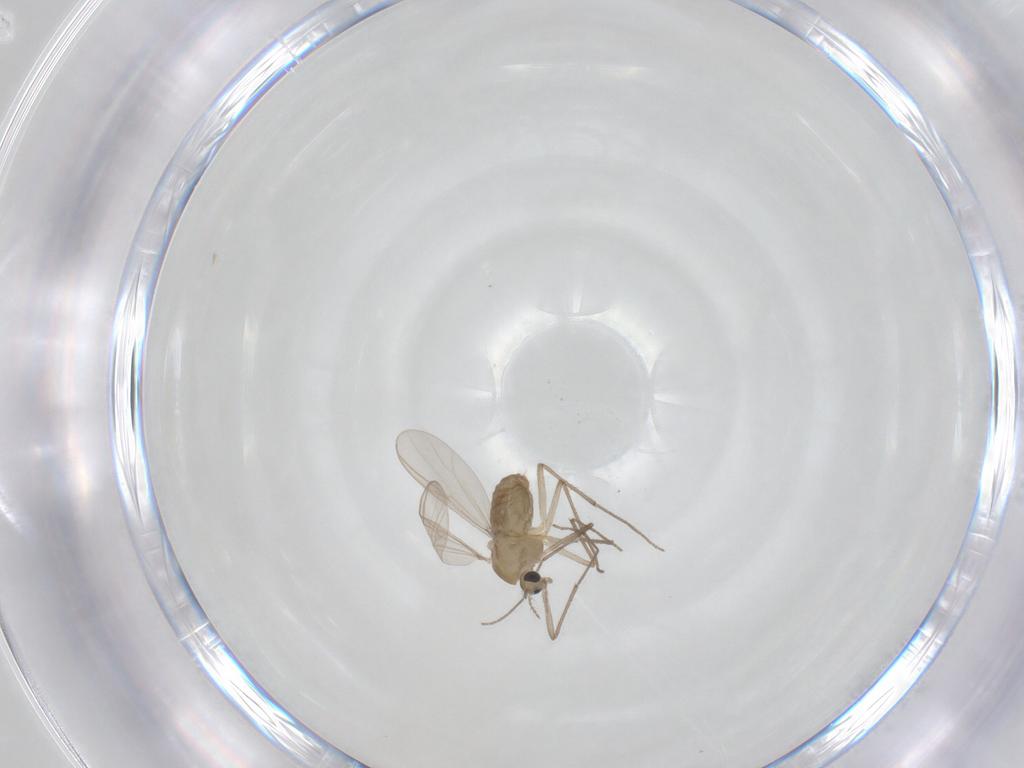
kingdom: Animalia
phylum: Arthropoda
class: Insecta
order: Diptera
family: Chironomidae
